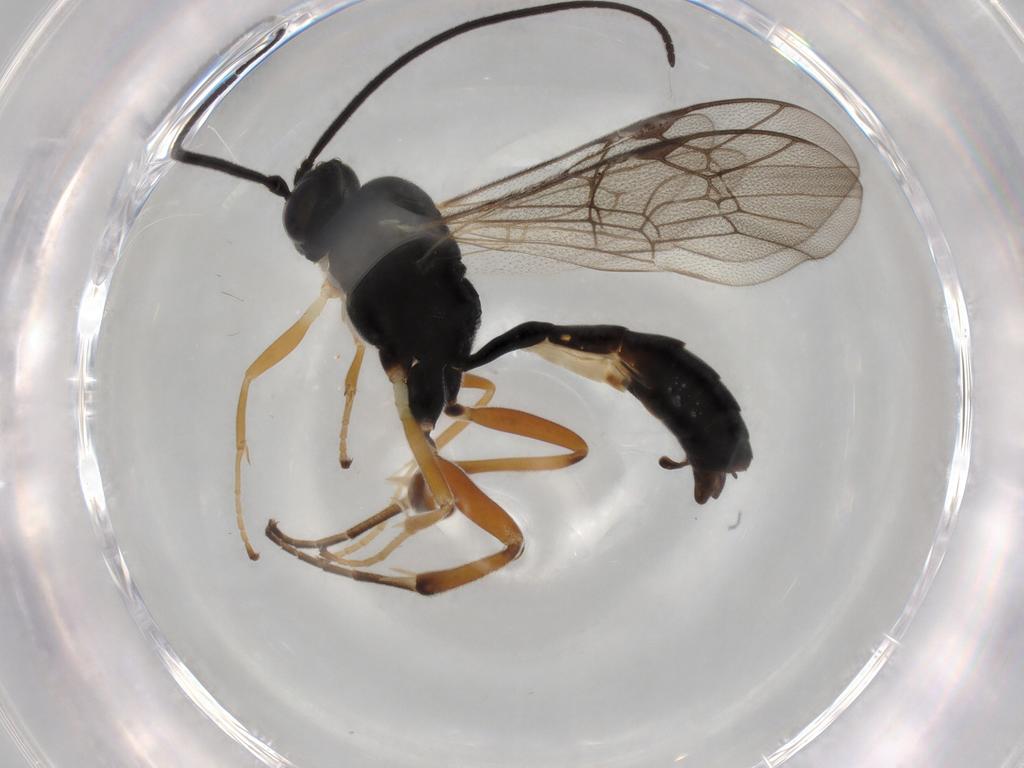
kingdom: Animalia
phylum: Arthropoda
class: Insecta
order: Hymenoptera
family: Ichneumonidae
